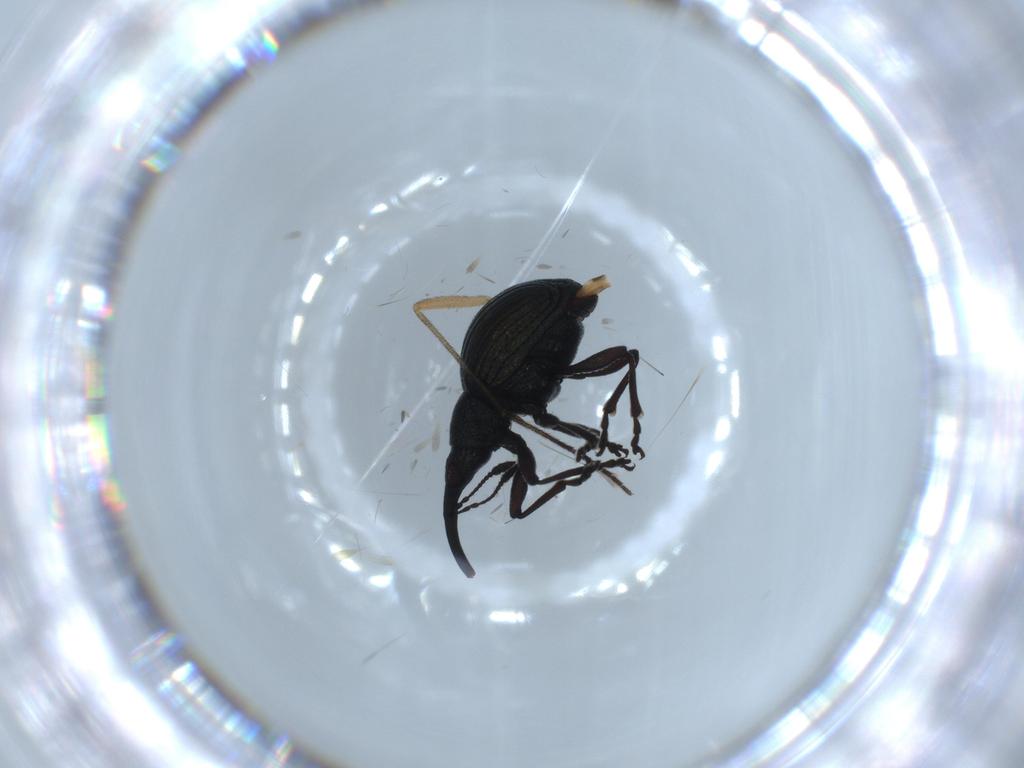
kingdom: Animalia
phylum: Arthropoda
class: Insecta
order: Coleoptera
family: Brentidae
